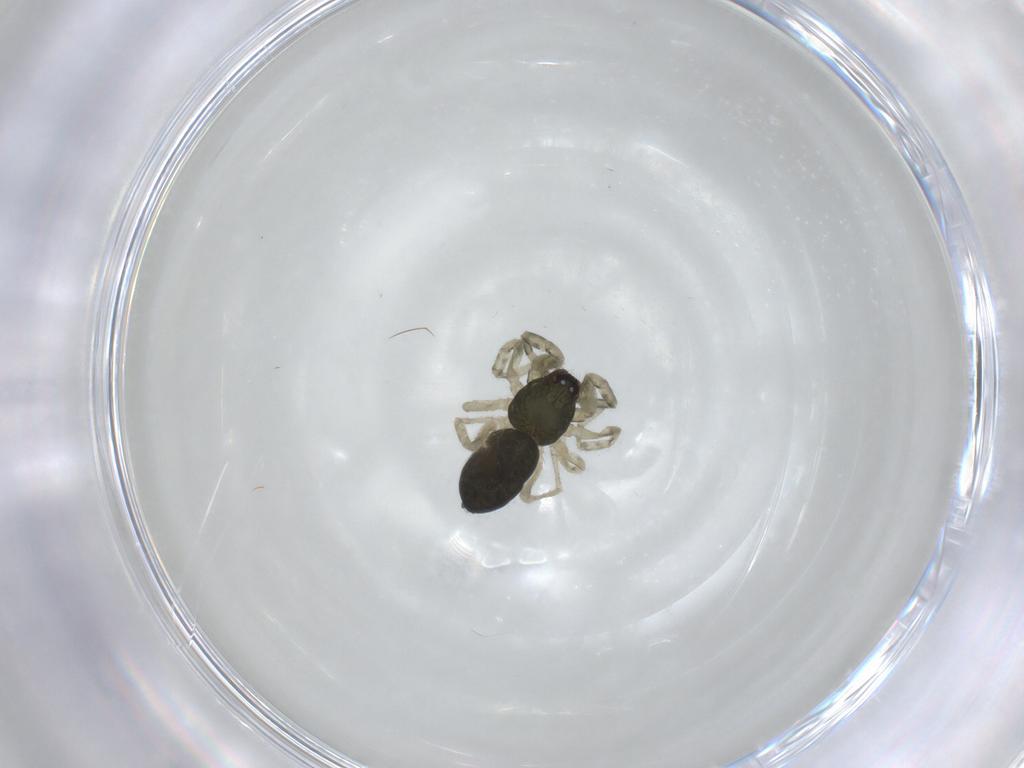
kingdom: Animalia
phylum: Arthropoda
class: Arachnida
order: Araneae
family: Trachelidae
